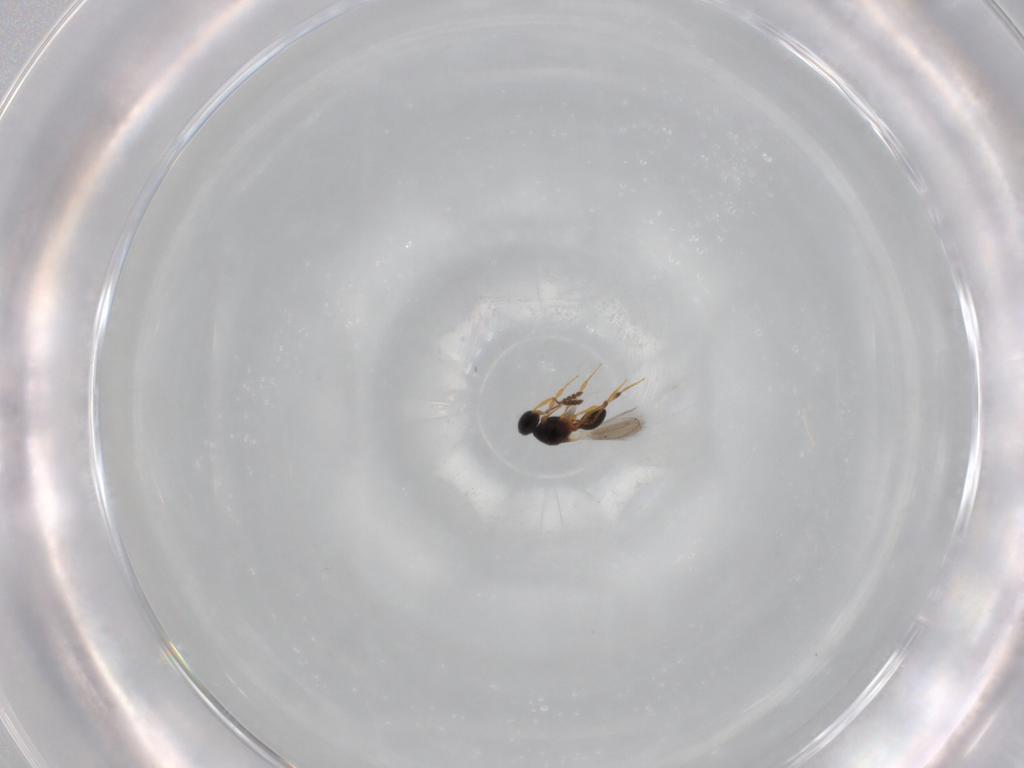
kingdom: Animalia
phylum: Arthropoda
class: Insecta
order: Hymenoptera
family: Platygastridae
